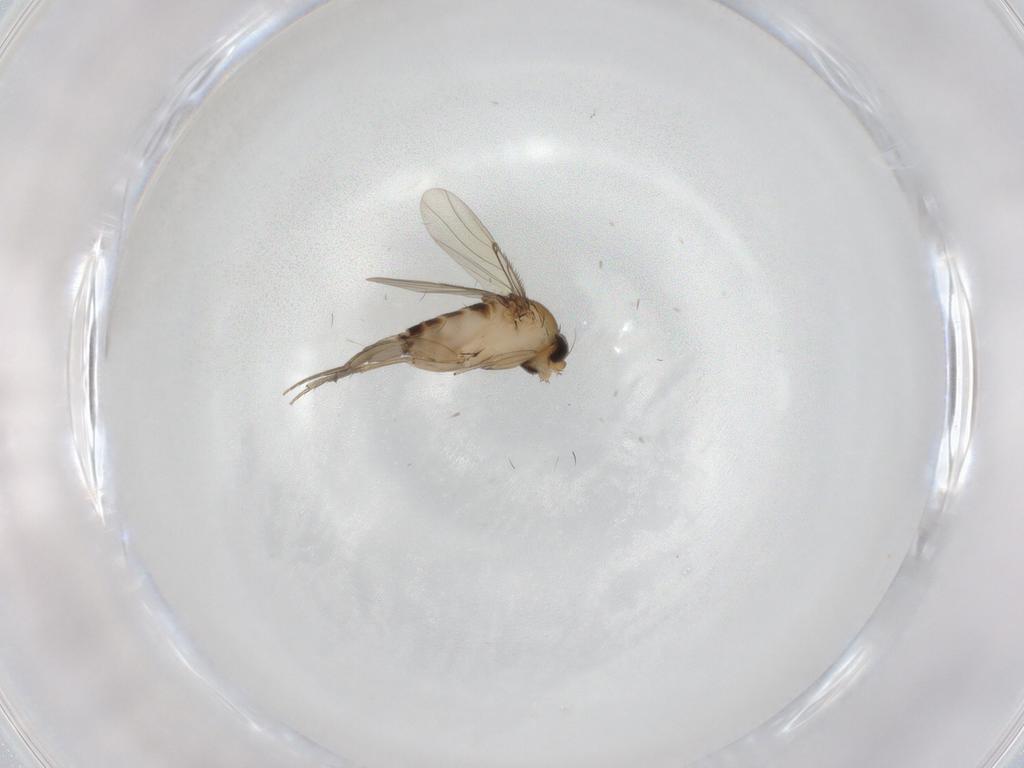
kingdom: Animalia
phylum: Arthropoda
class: Insecta
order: Diptera
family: Phoridae
